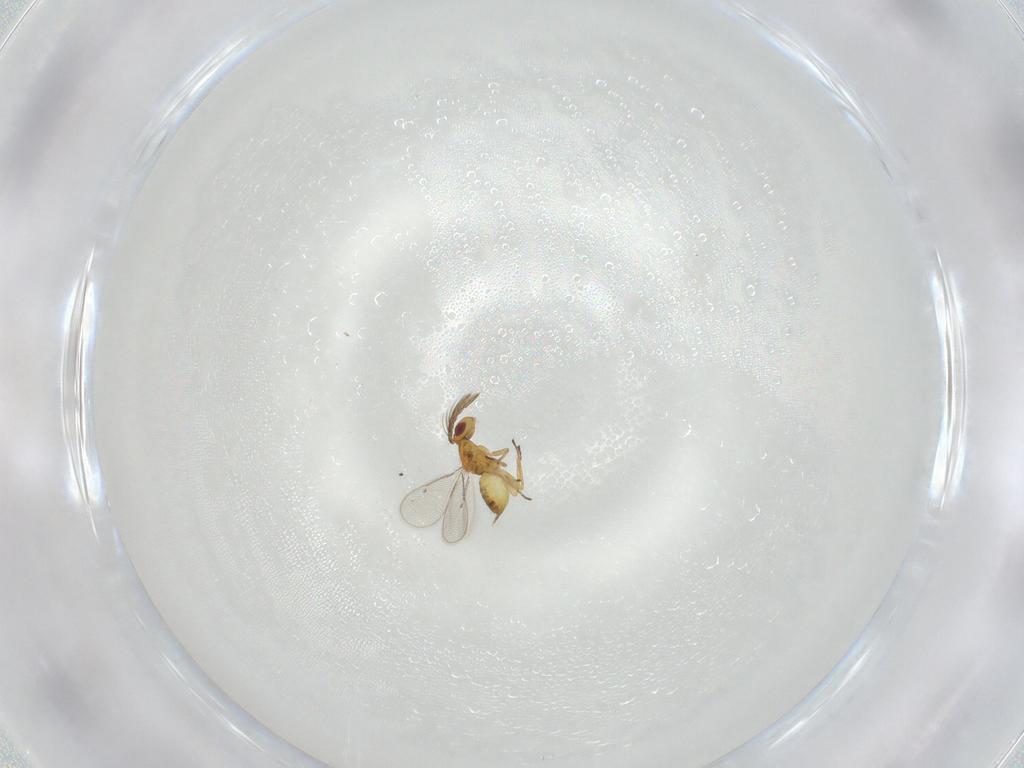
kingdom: Animalia
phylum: Arthropoda
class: Insecta
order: Hymenoptera
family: Eulophidae
